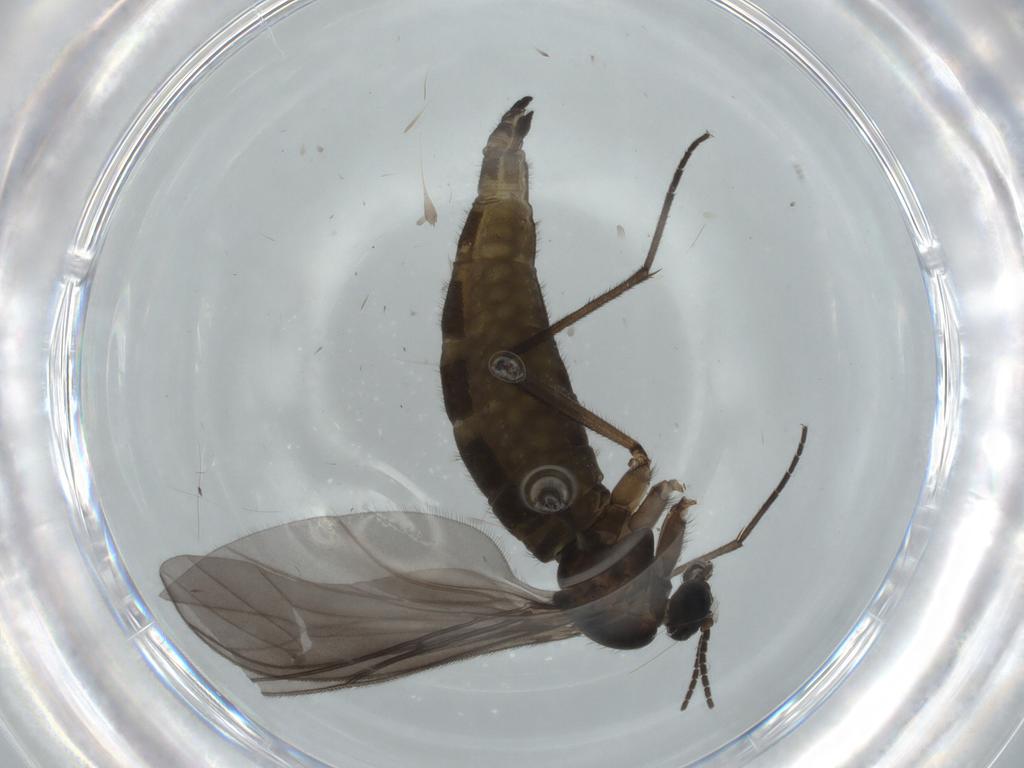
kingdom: Animalia
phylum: Arthropoda
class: Insecta
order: Diptera
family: Sciaridae
